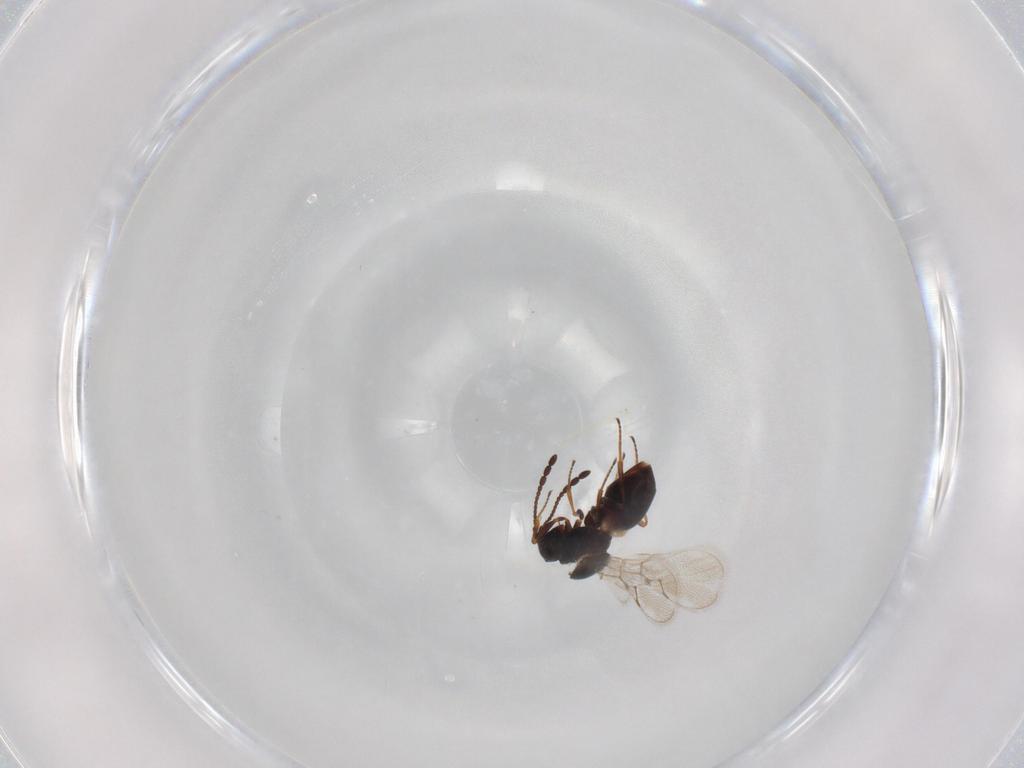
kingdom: Animalia
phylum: Arthropoda
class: Insecta
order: Hymenoptera
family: Figitidae
